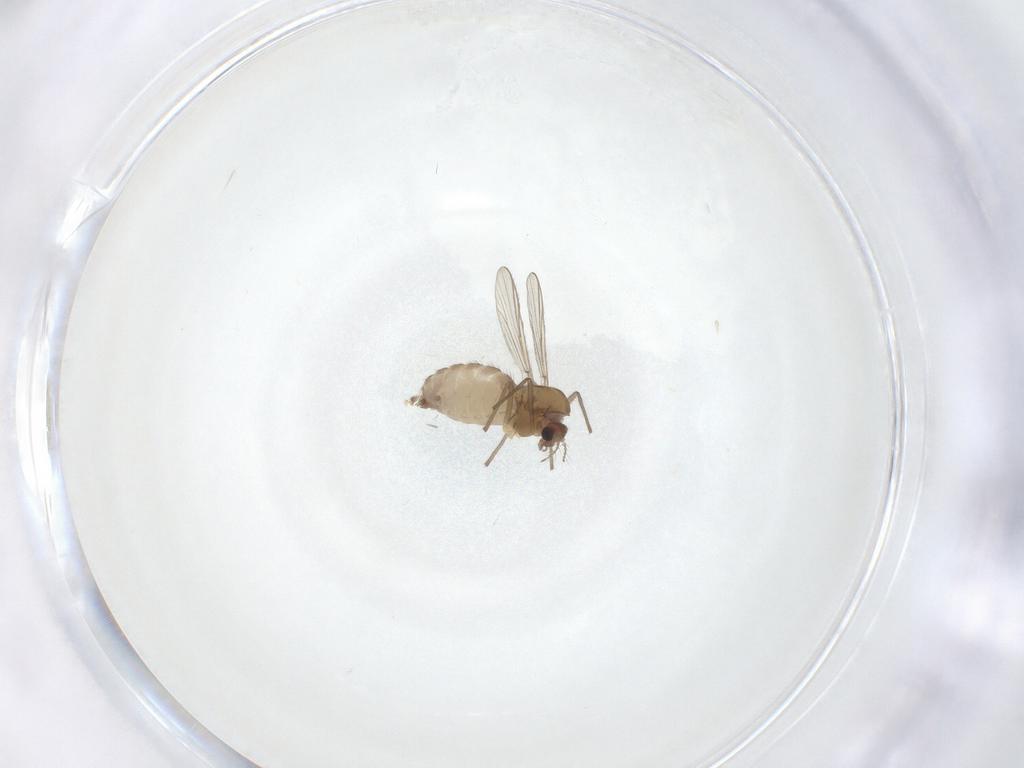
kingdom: Animalia
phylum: Arthropoda
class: Insecta
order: Diptera
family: Chironomidae
